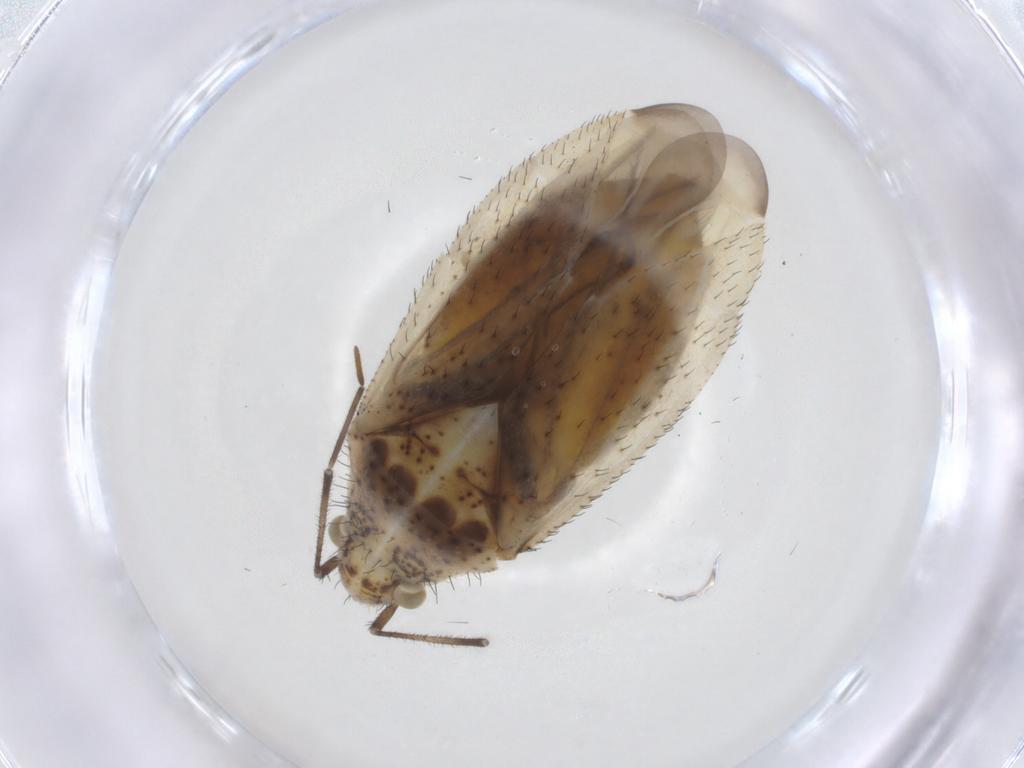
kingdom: Animalia
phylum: Arthropoda
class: Insecta
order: Hemiptera
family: Miridae
